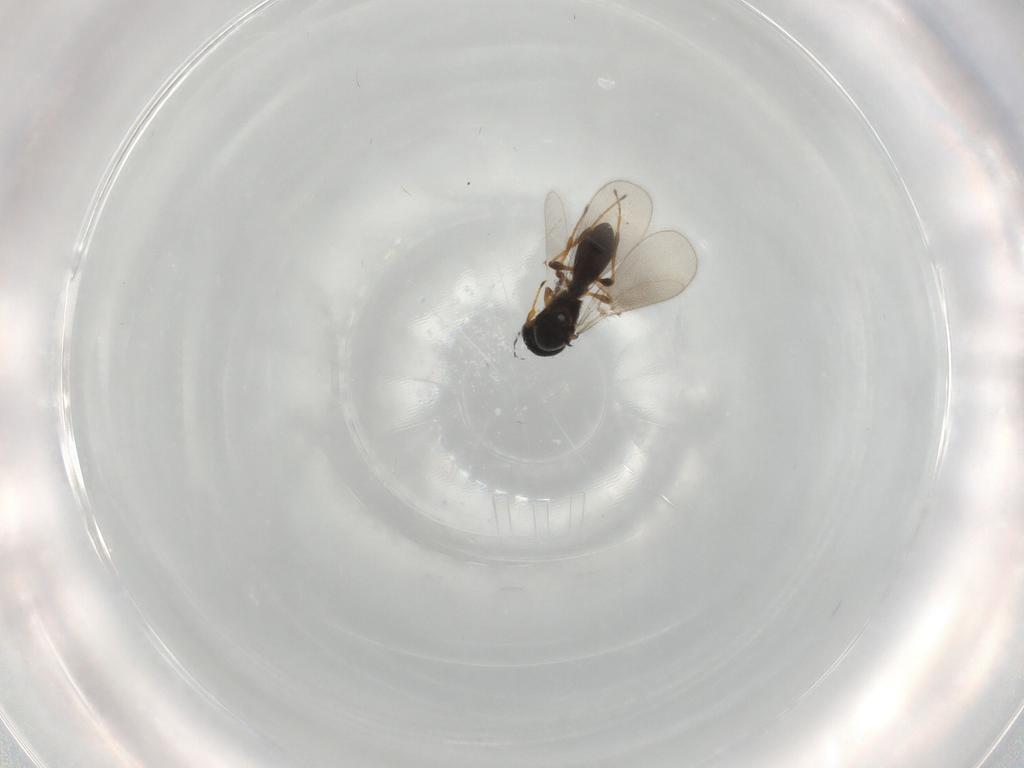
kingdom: Animalia
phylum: Arthropoda
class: Insecta
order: Hymenoptera
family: Platygastridae
